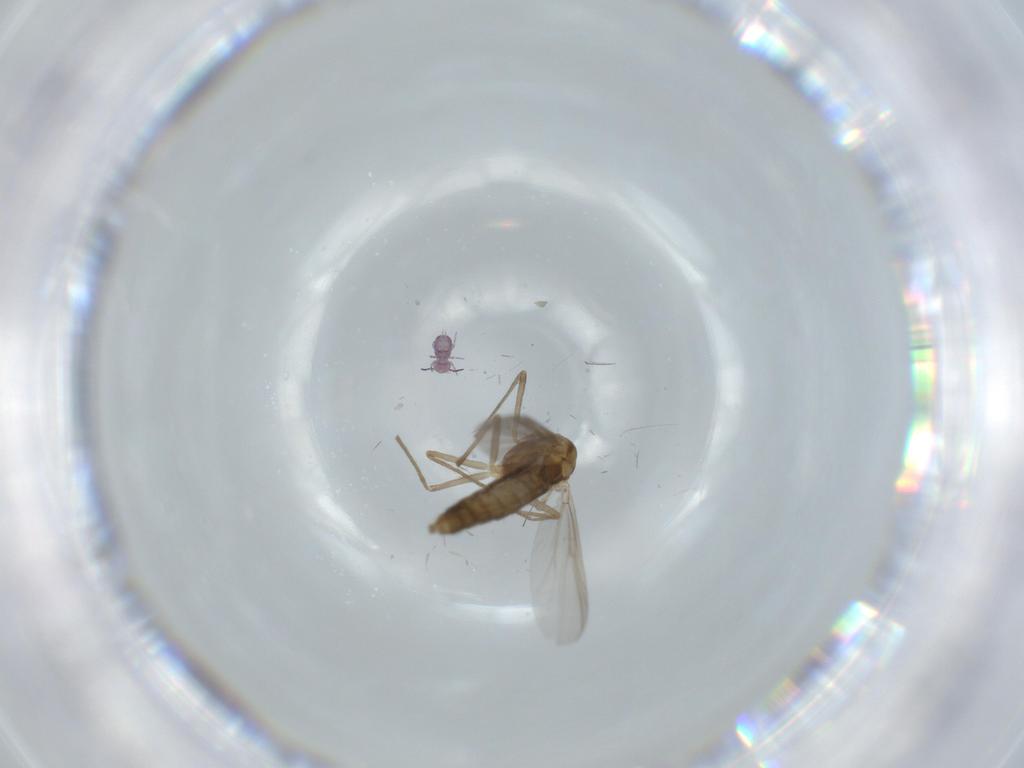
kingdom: Animalia
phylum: Arthropoda
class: Insecta
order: Diptera
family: Chironomidae
